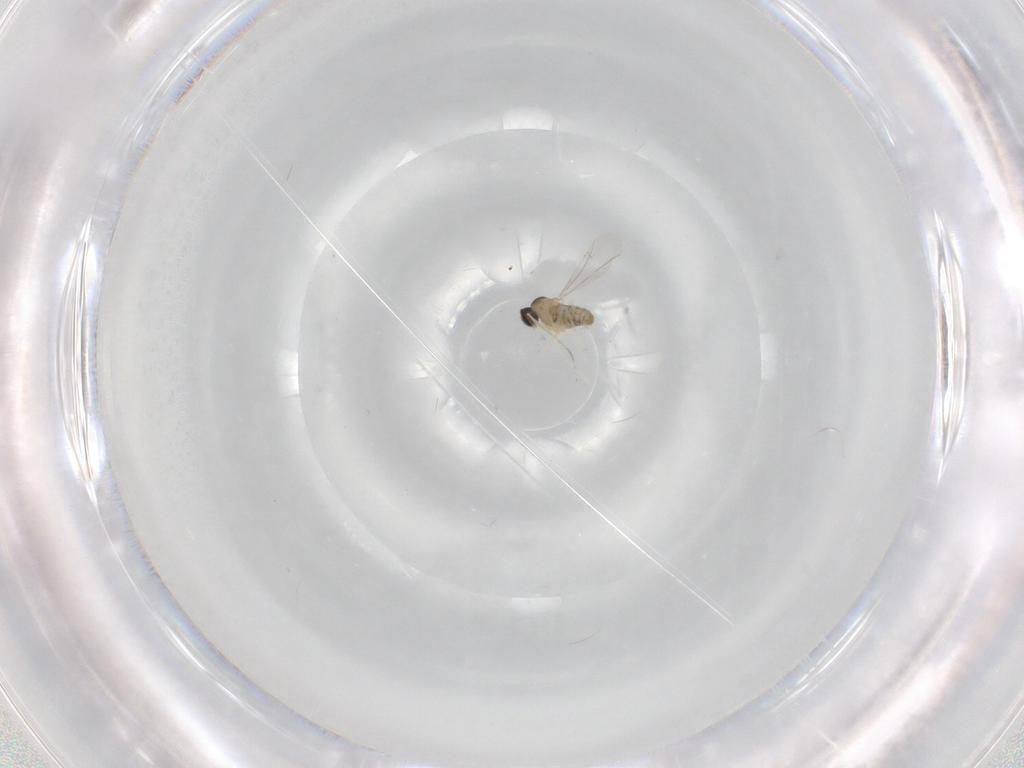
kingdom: Animalia
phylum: Arthropoda
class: Insecta
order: Diptera
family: Cecidomyiidae
